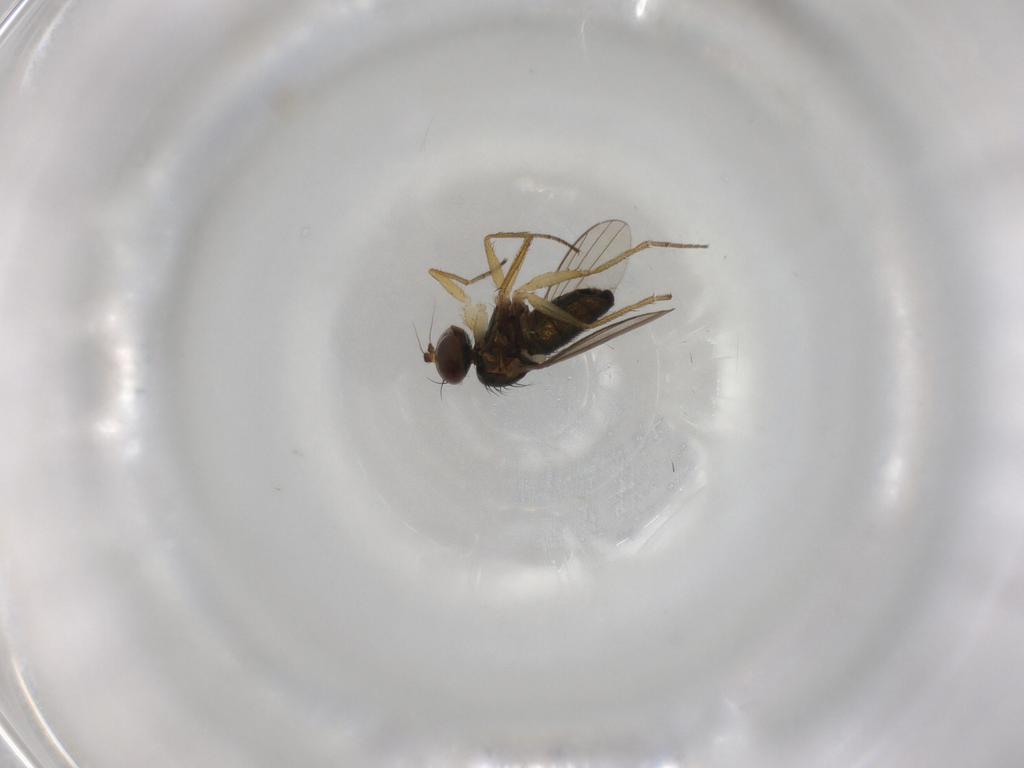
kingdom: Animalia
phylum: Arthropoda
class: Insecta
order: Diptera
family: Dolichopodidae
